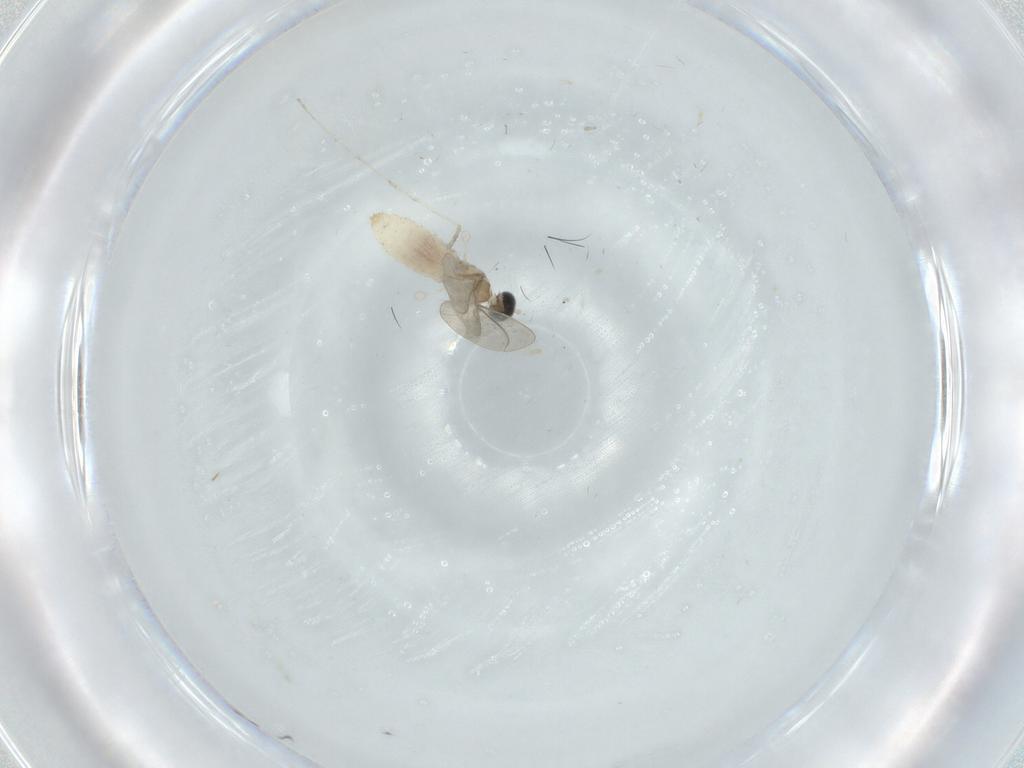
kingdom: Animalia
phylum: Arthropoda
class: Insecta
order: Diptera
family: Cecidomyiidae
